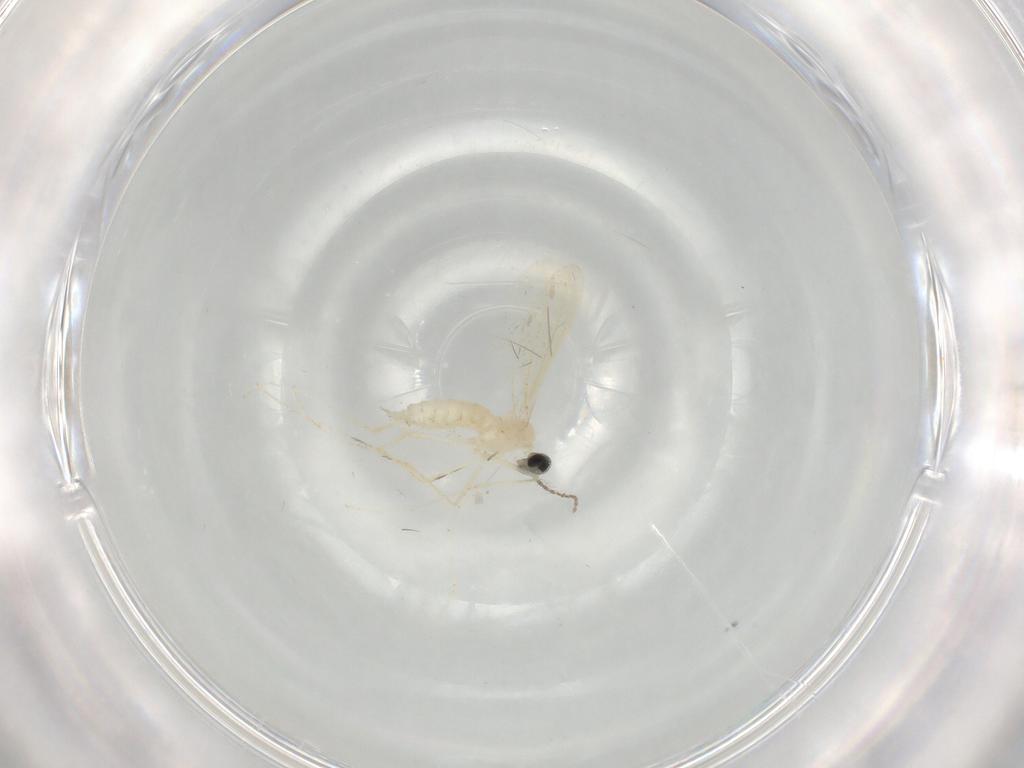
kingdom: Animalia
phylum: Arthropoda
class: Insecta
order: Diptera
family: Cecidomyiidae
